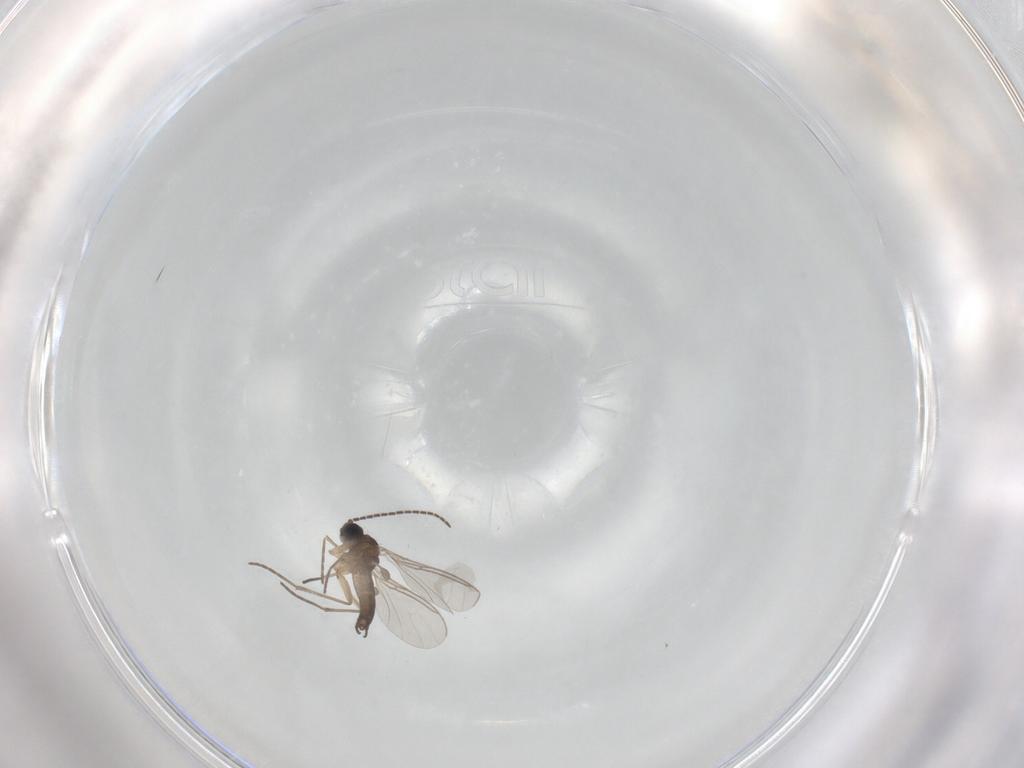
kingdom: Animalia
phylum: Arthropoda
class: Insecta
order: Diptera
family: Sciaridae
